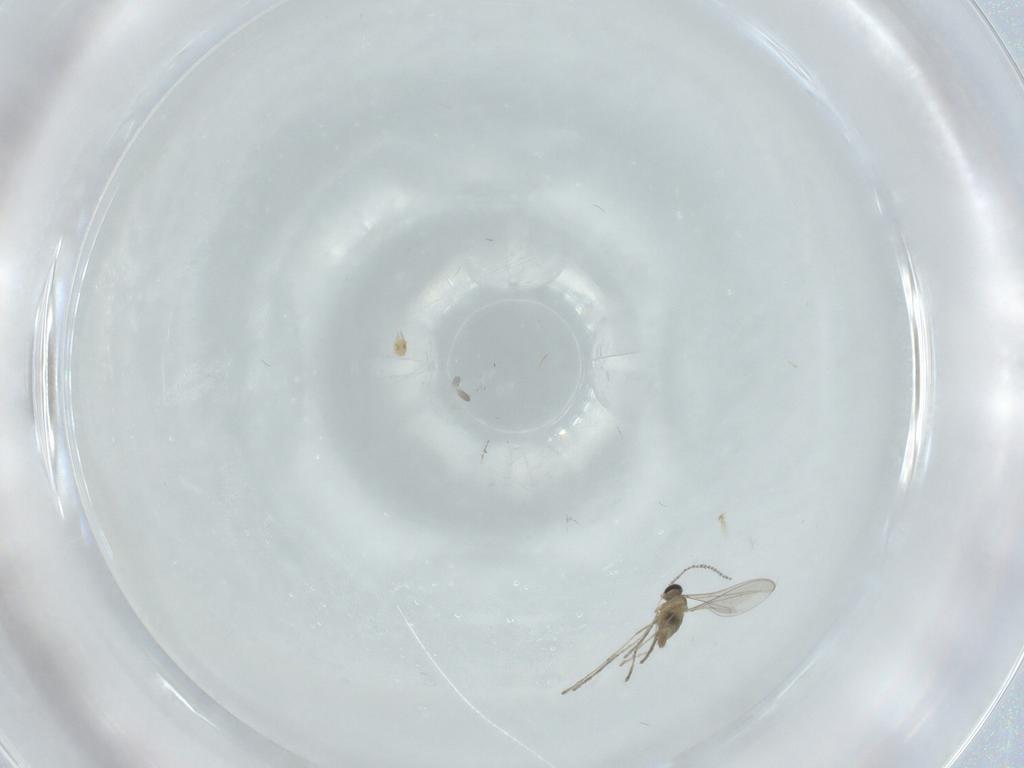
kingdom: Animalia
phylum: Arthropoda
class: Insecta
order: Diptera
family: Cecidomyiidae
